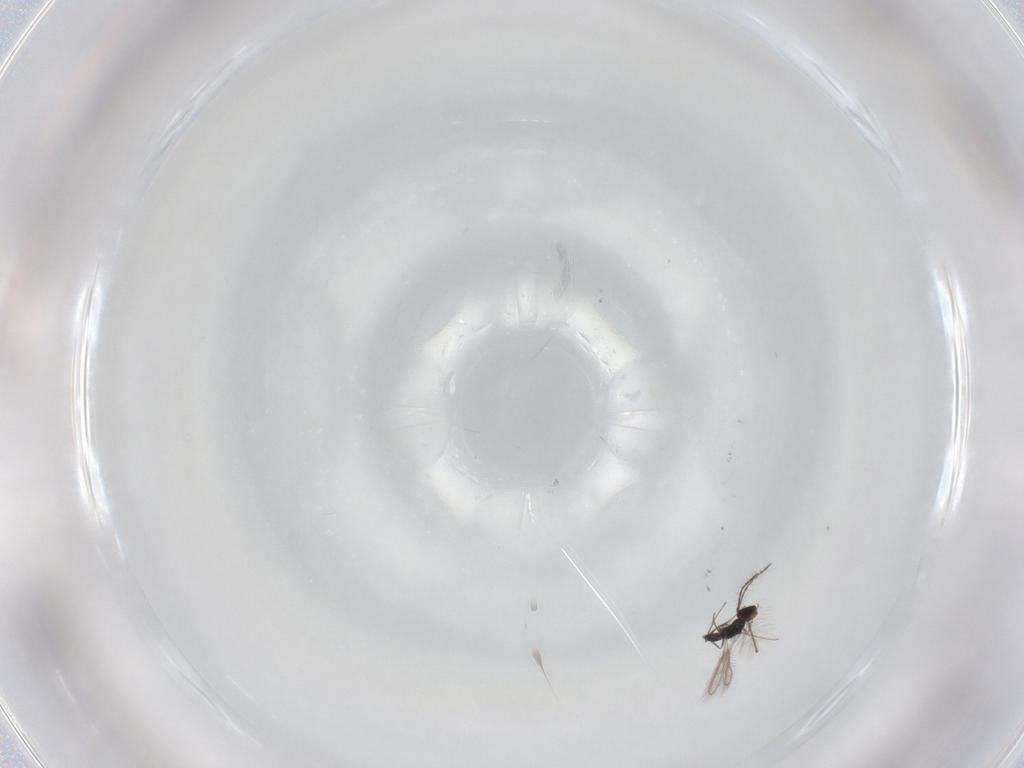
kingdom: Animalia
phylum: Arthropoda
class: Insecta
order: Hymenoptera
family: Pteromalidae
